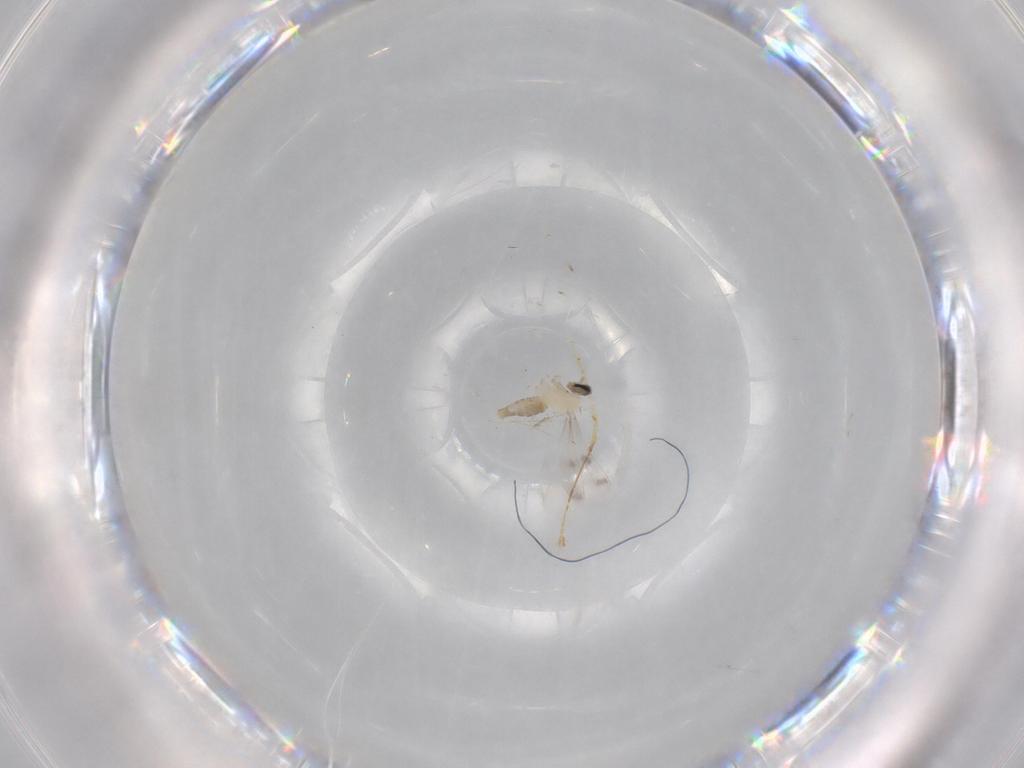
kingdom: Animalia
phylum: Arthropoda
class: Insecta
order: Diptera
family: Cecidomyiidae
